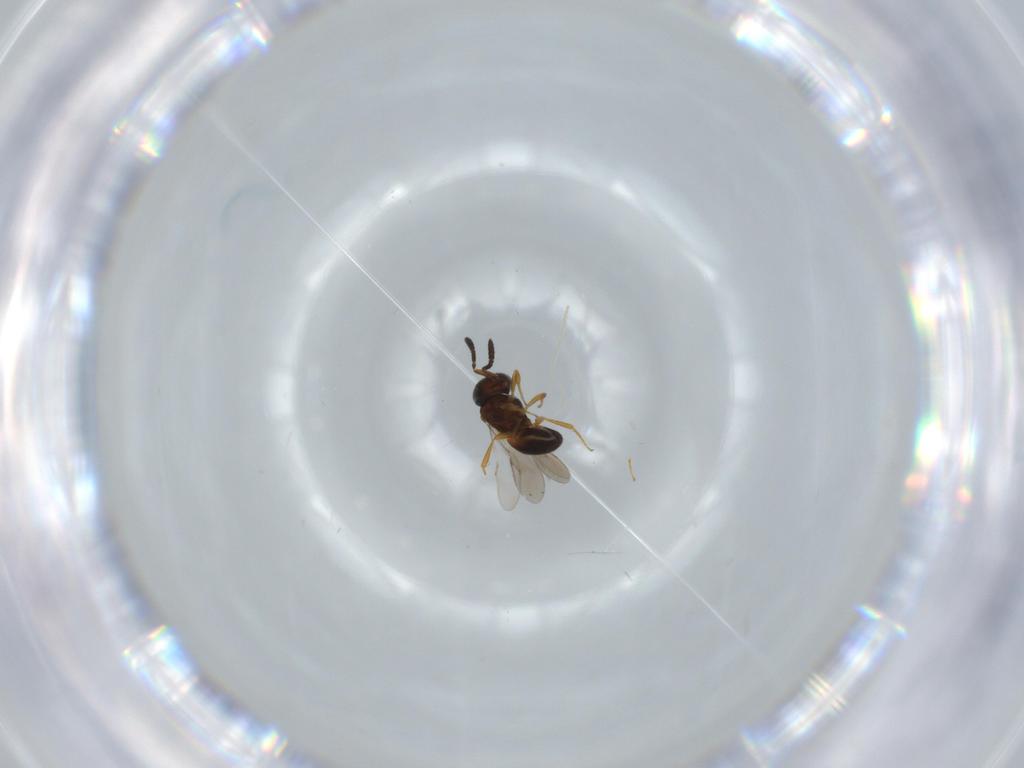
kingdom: Animalia
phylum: Arthropoda
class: Insecta
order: Hymenoptera
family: Scelionidae
